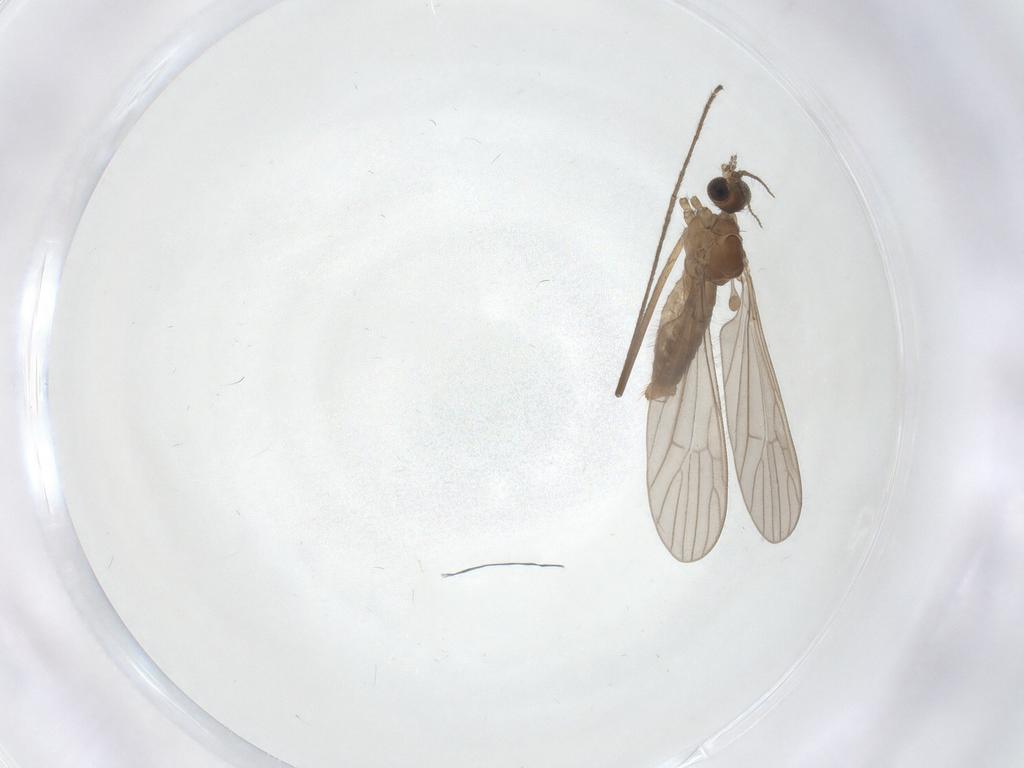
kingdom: Animalia
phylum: Arthropoda
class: Insecta
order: Diptera
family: Limoniidae
